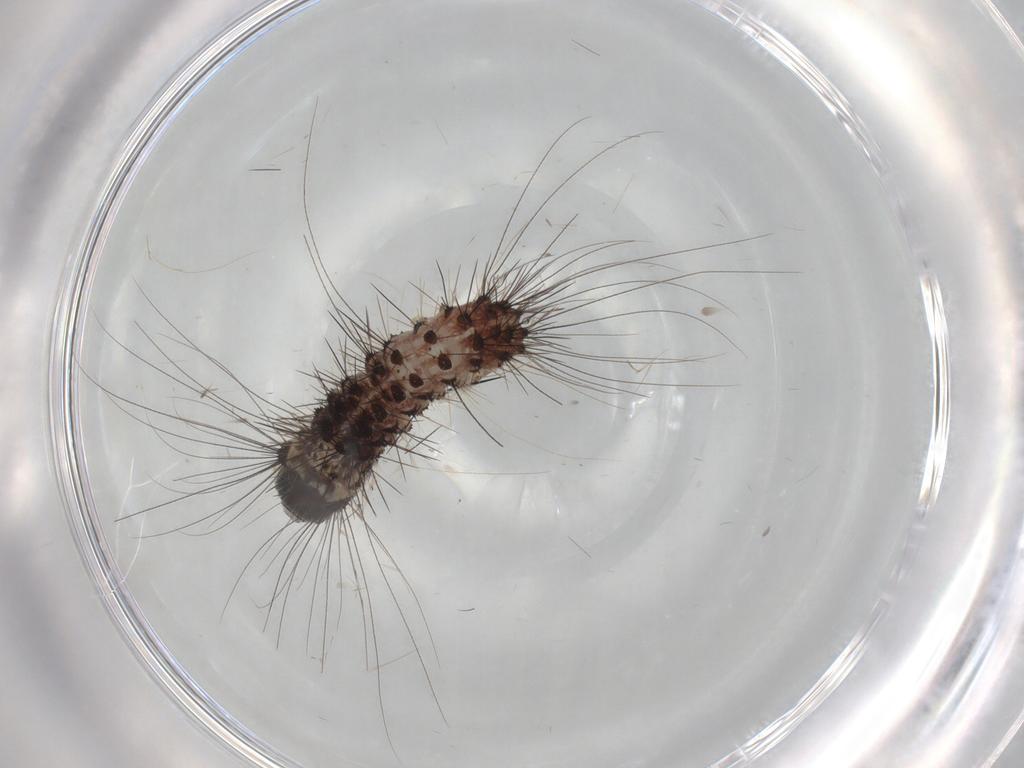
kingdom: Animalia
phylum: Arthropoda
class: Insecta
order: Lepidoptera
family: Erebidae
